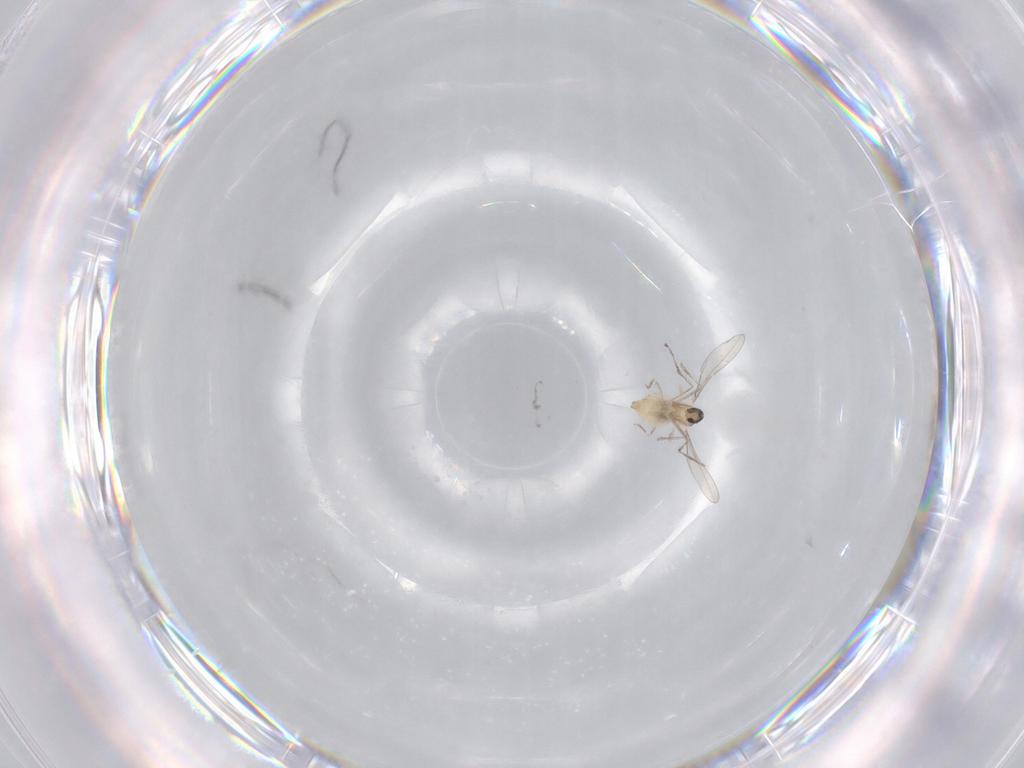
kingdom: Animalia
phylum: Arthropoda
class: Insecta
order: Diptera
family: Cecidomyiidae
